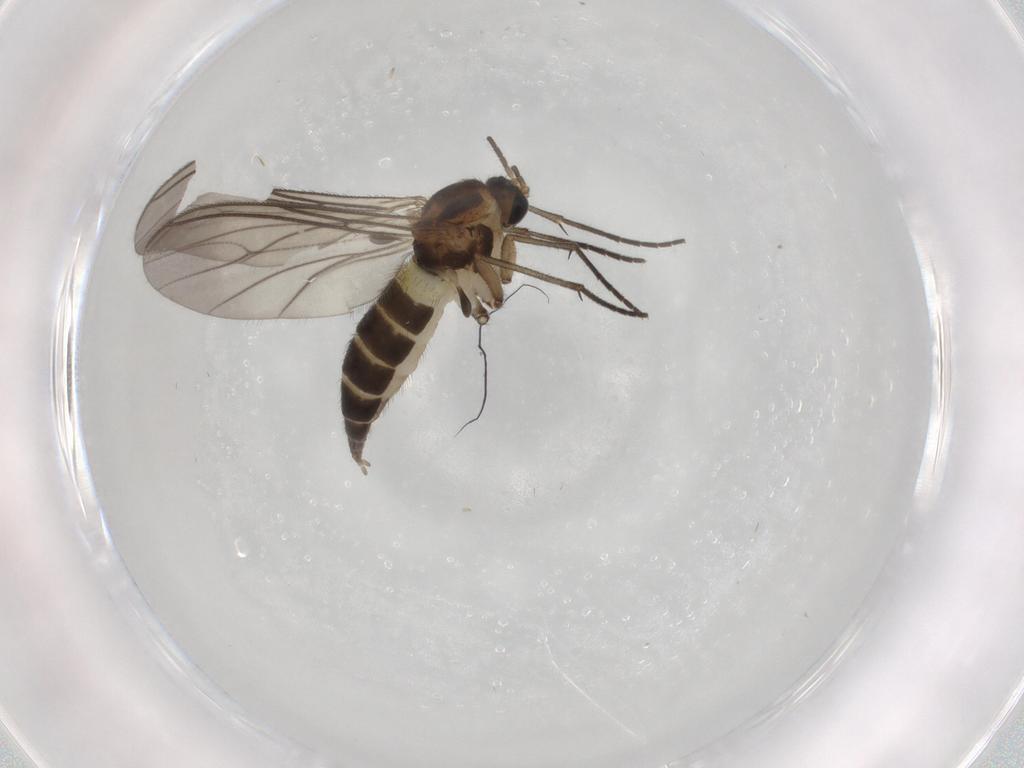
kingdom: Animalia
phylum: Arthropoda
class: Insecta
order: Diptera
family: Sciaridae
